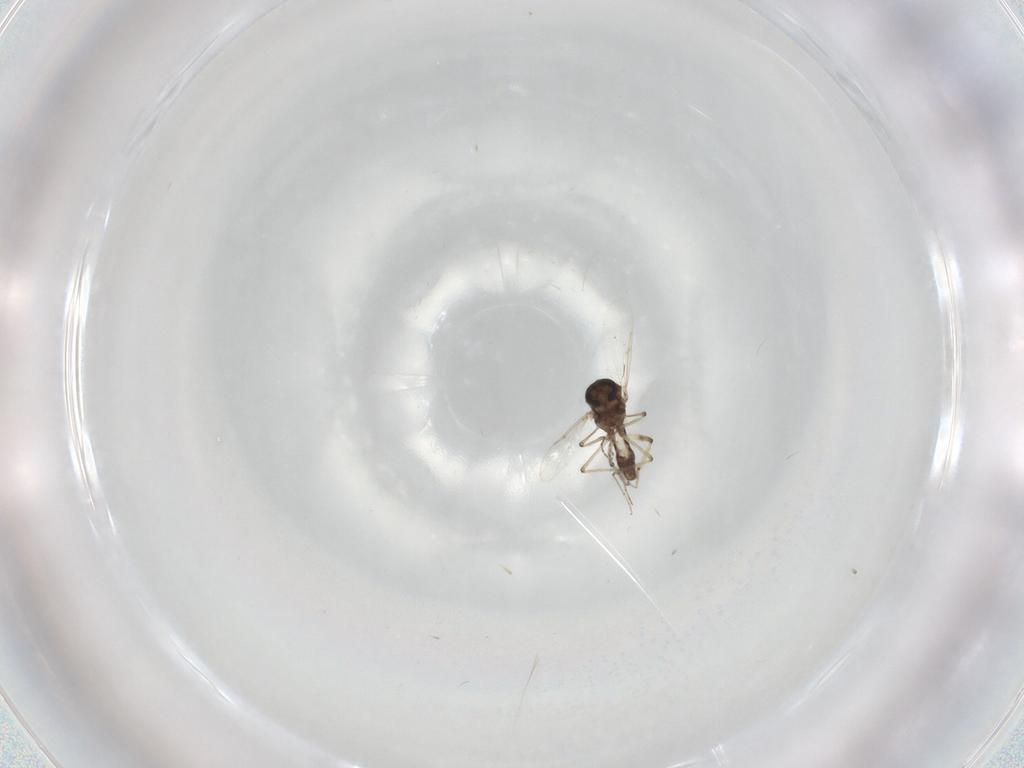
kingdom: Animalia
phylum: Arthropoda
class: Insecta
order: Diptera
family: Ceratopogonidae
